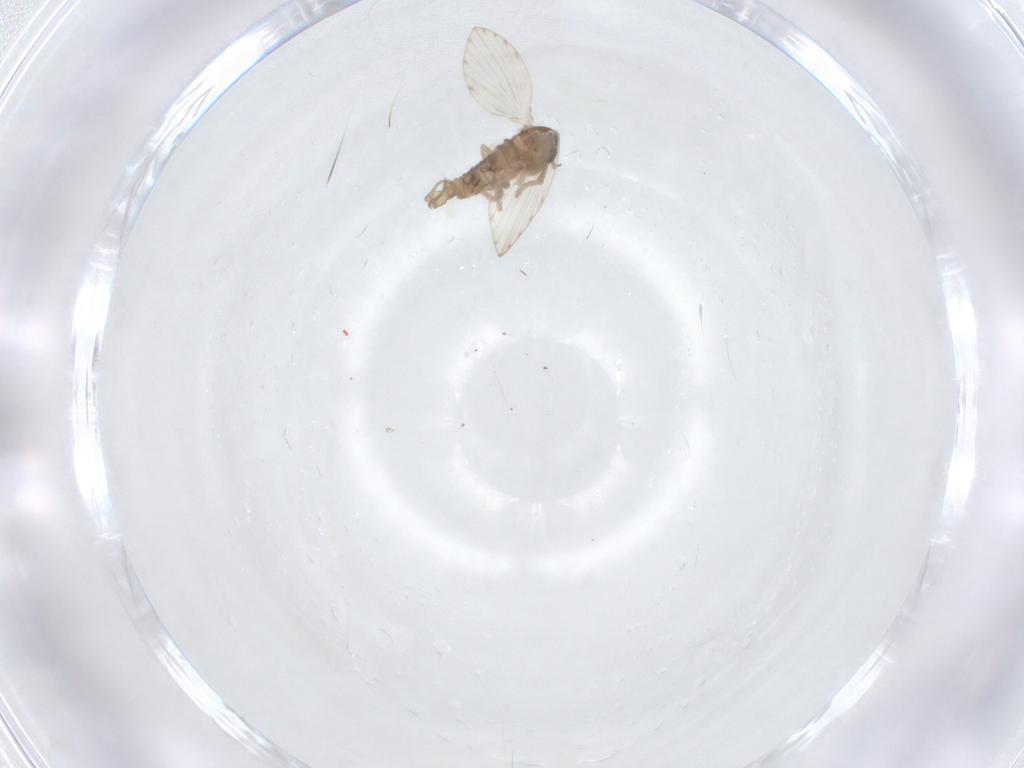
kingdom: Animalia
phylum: Arthropoda
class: Insecta
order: Diptera
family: Psychodidae
